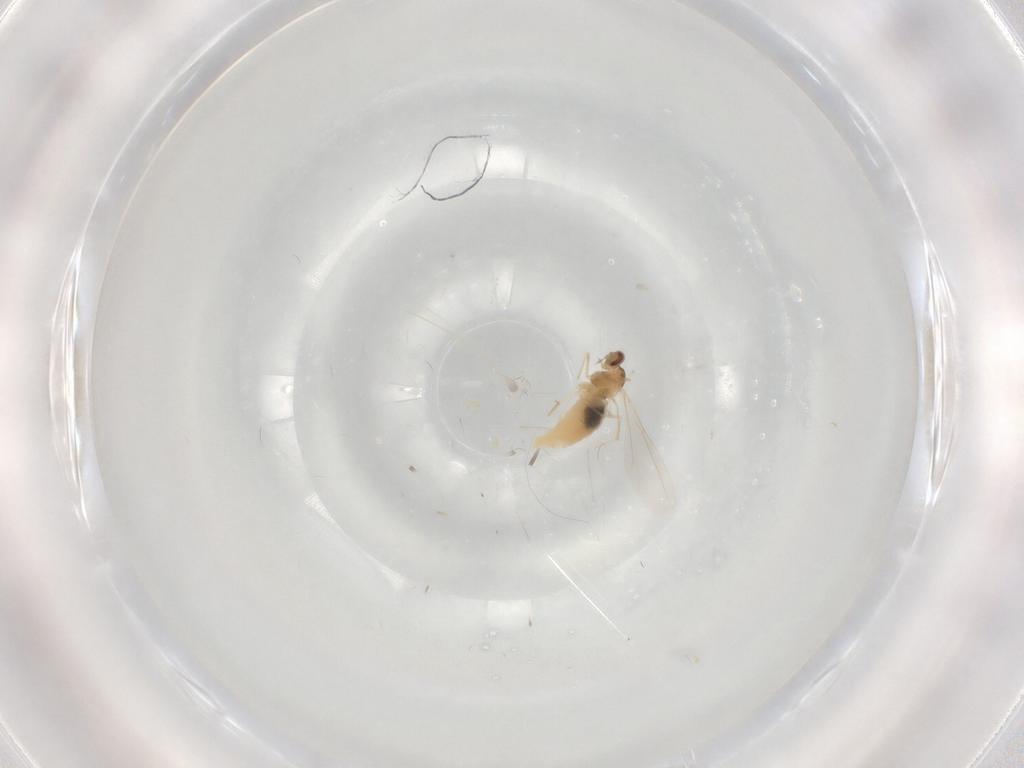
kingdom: Animalia
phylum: Arthropoda
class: Insecta
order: Diptera
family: Chironomidae
